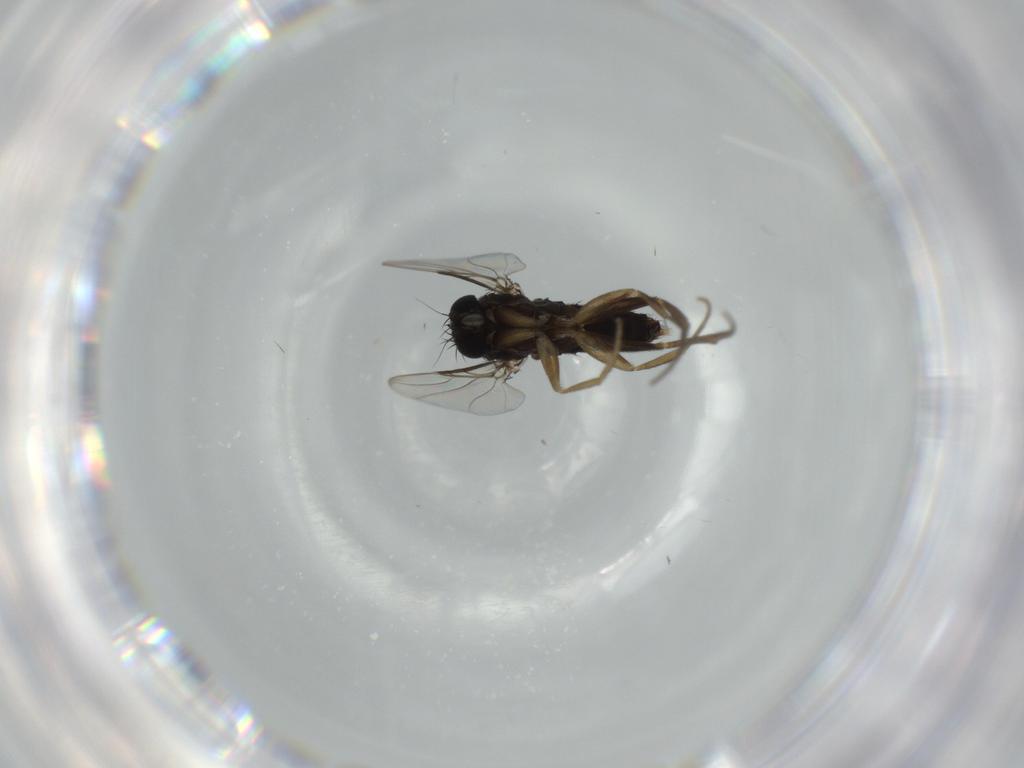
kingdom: Animalia
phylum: Arthropoda
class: Insecta
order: Diptera
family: Phoridae
